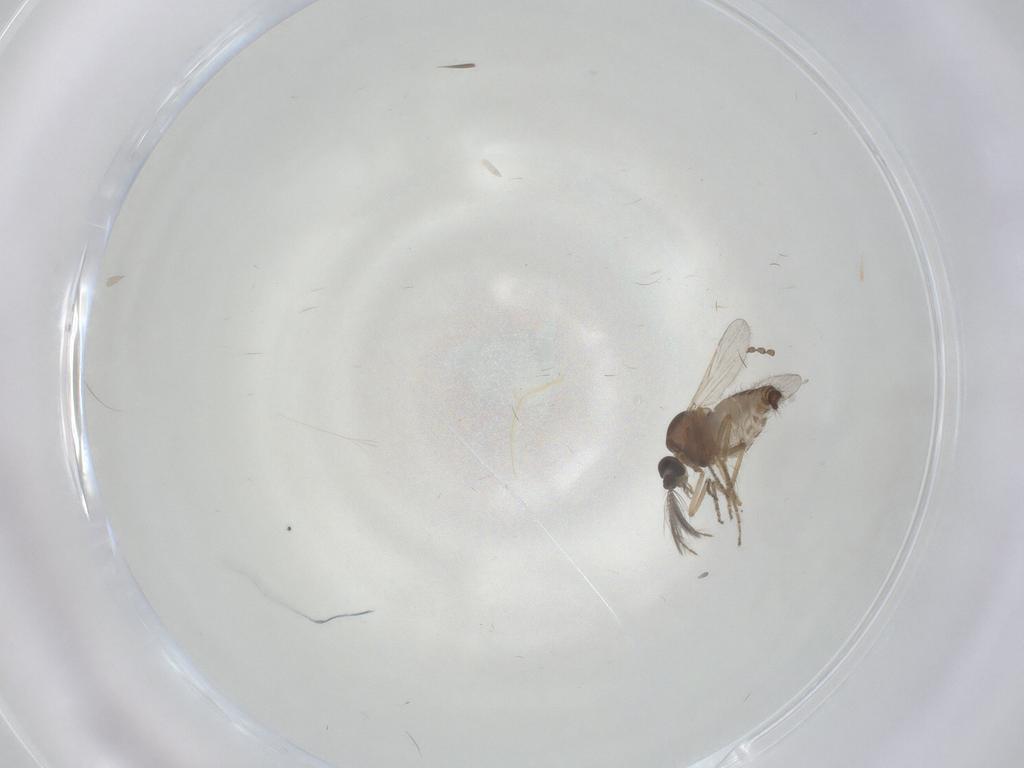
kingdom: Animalia
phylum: Arthropoda
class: Insecta
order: Diptera
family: Cecidomyiidae
